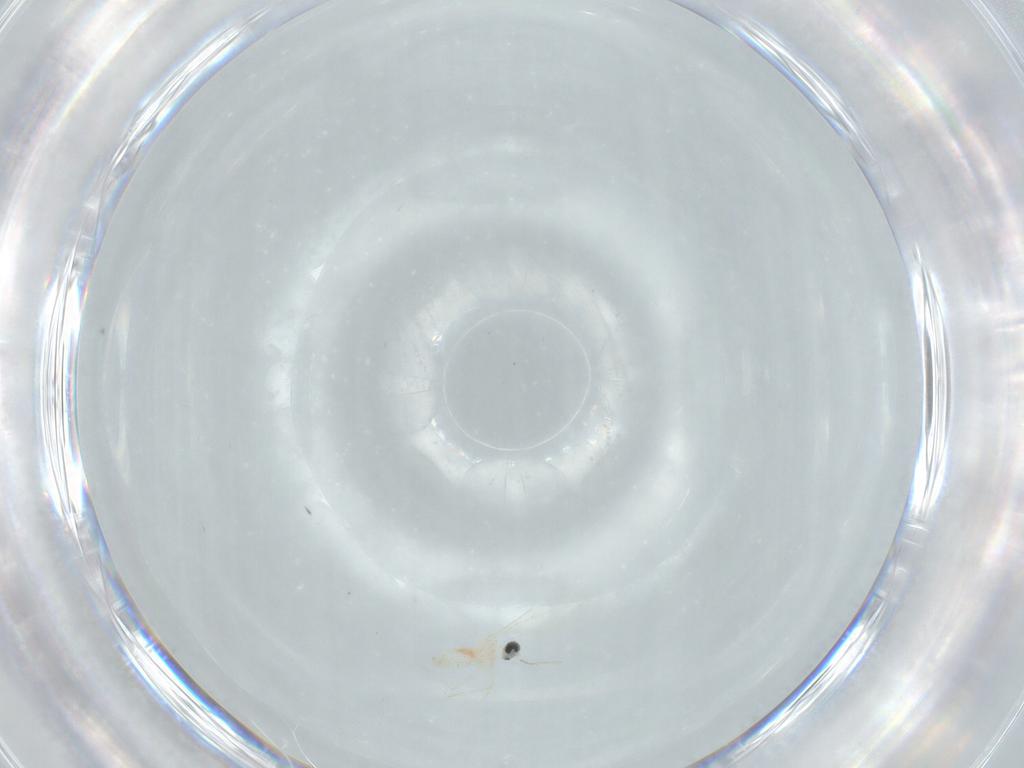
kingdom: Animalia
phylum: Arthropoda
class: Insecta
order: Diptera
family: Cecidomyiidae
